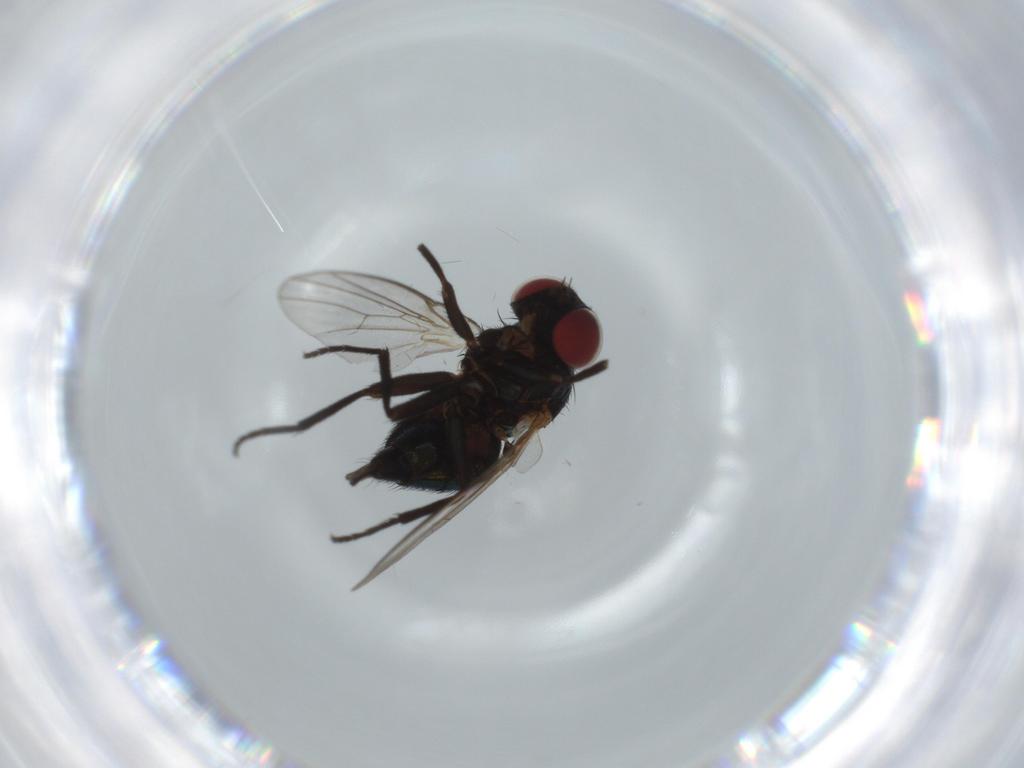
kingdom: Animalia
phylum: Arthropoda
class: Insecta
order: Diptera
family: Agromyzidae
